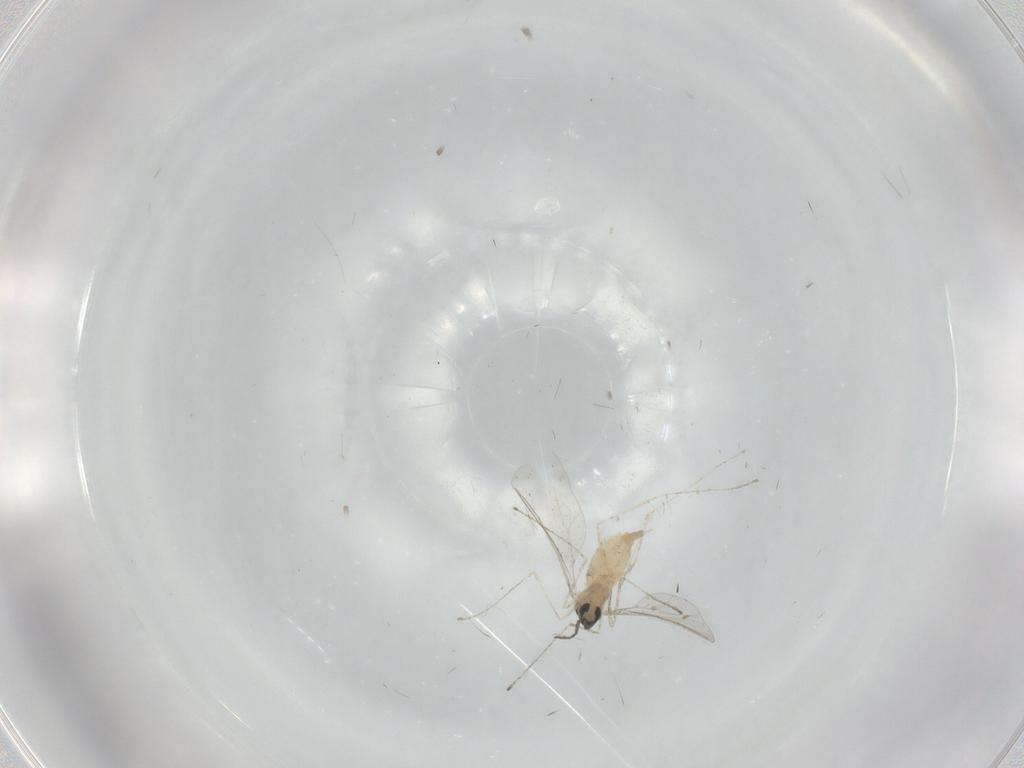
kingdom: Animalia
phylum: Arthropoda
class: Insecta
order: Diptera
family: Cecidomyiidae
